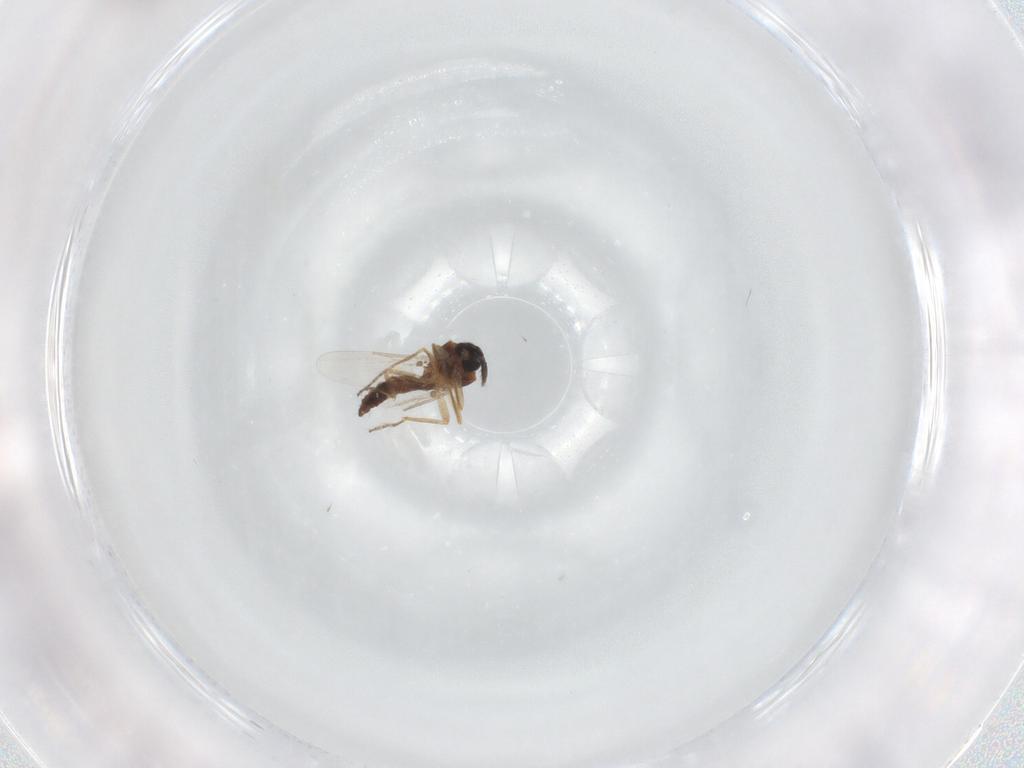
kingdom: Animalia
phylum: Arthropoda
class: Insecta
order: Diptera
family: Ceratopogonidae
